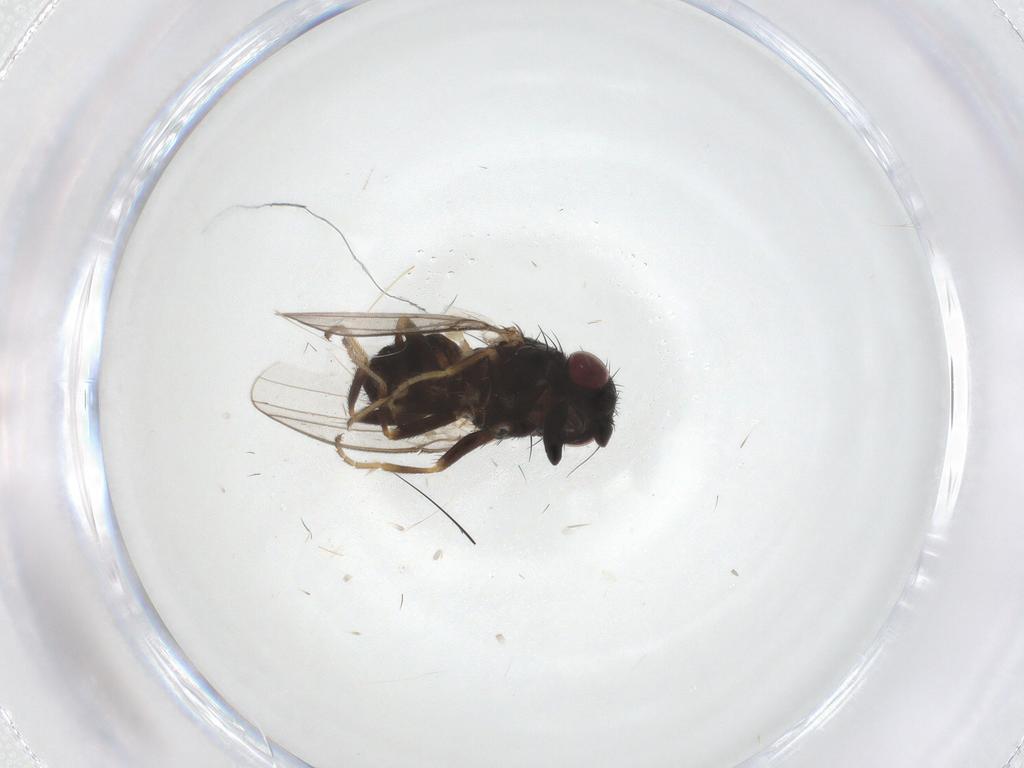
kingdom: Animalia
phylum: Arthropoda
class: Insecta
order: Diptera
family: Milichiidae
